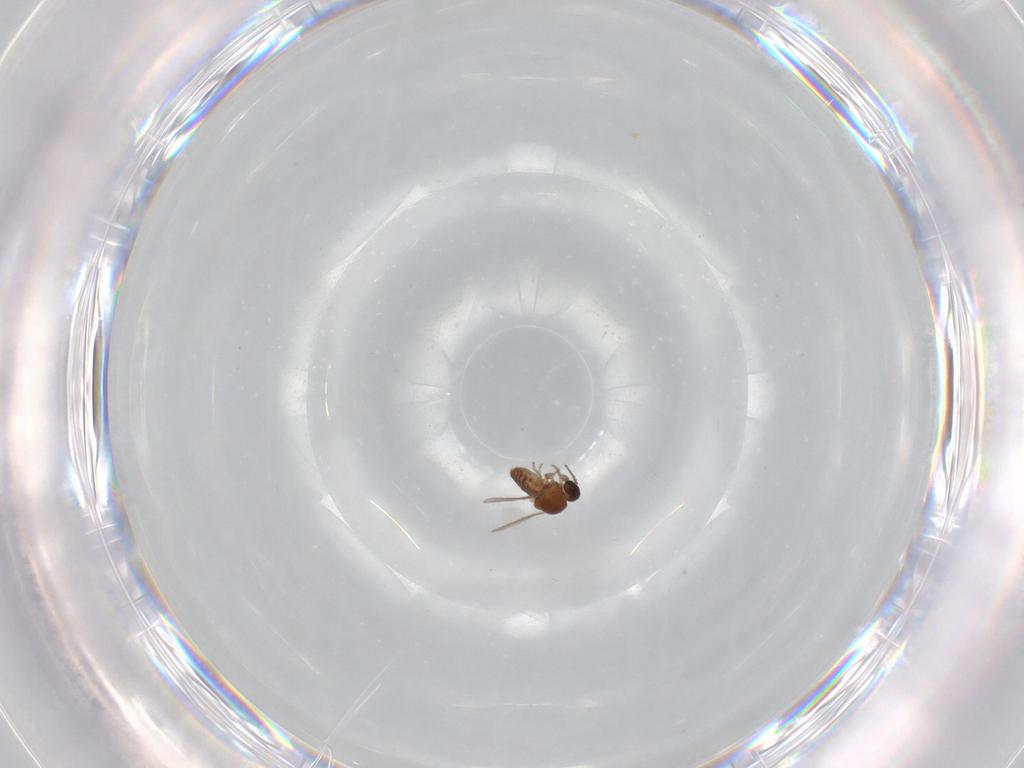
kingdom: Animalia
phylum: Arthropoda
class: Insecta
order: Diptera
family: Ceratopogonidae
